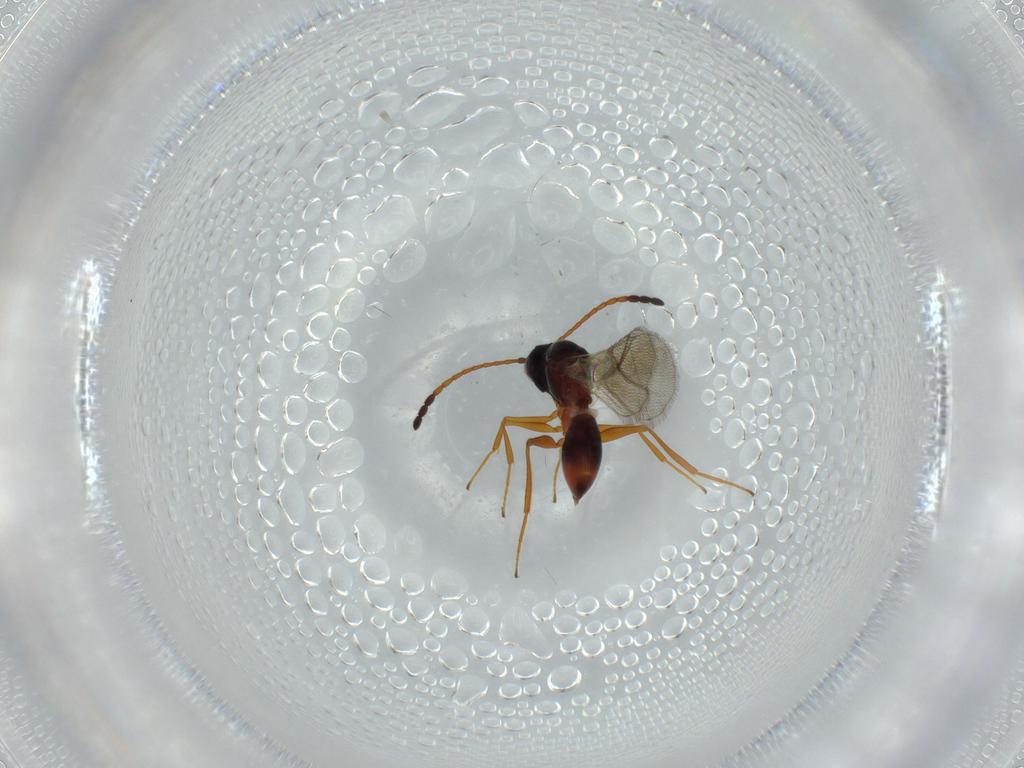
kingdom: Animalia
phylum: Arthropoda
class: Insecta
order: Hymenoptera
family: Figitidae
